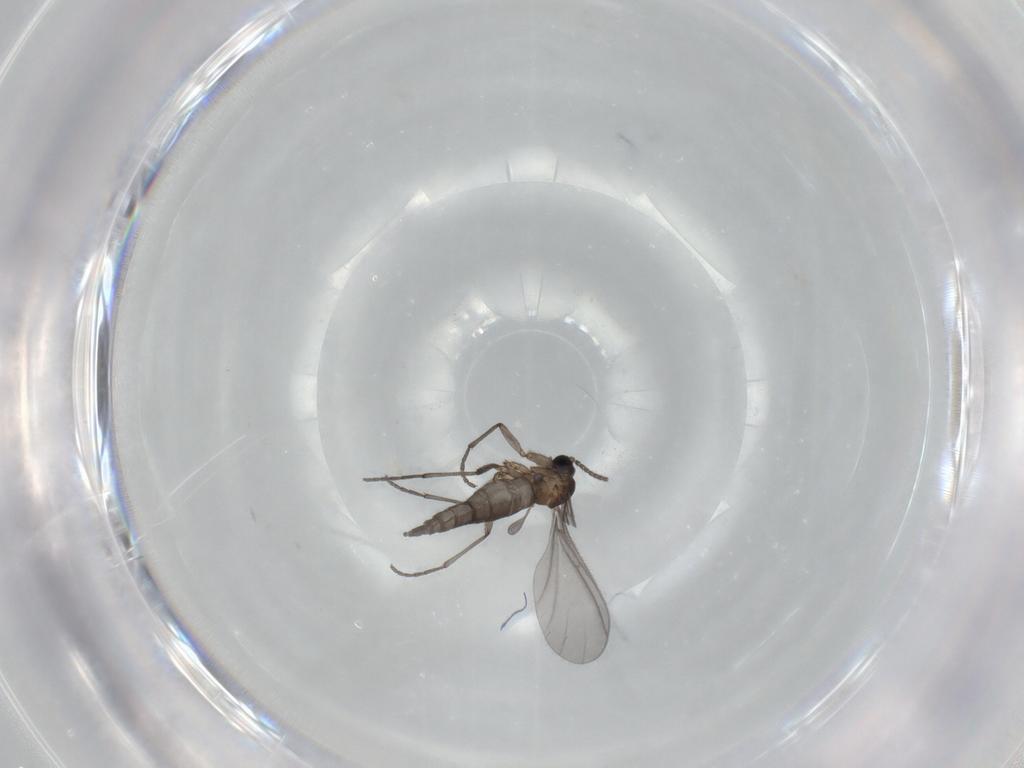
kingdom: Animalia
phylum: Arthropoda
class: Insecta
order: Diptera
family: Sciaridae
